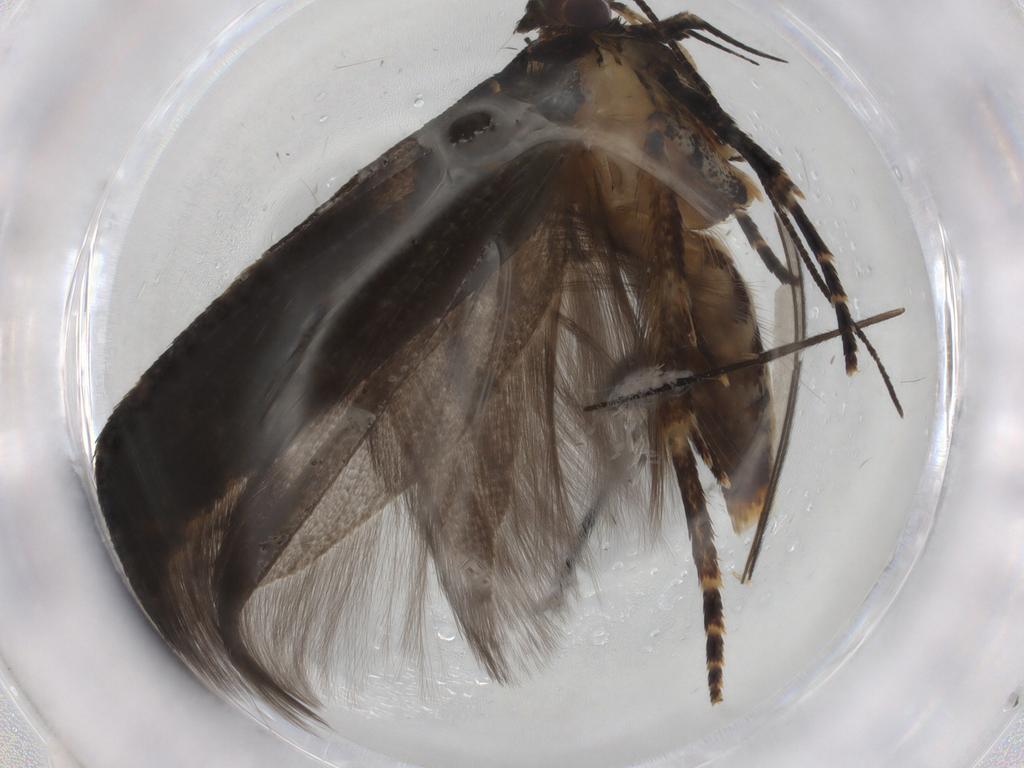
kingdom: Animalia
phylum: Arthropoda
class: Insecta
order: Lepidoptera
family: Gelechiidae
